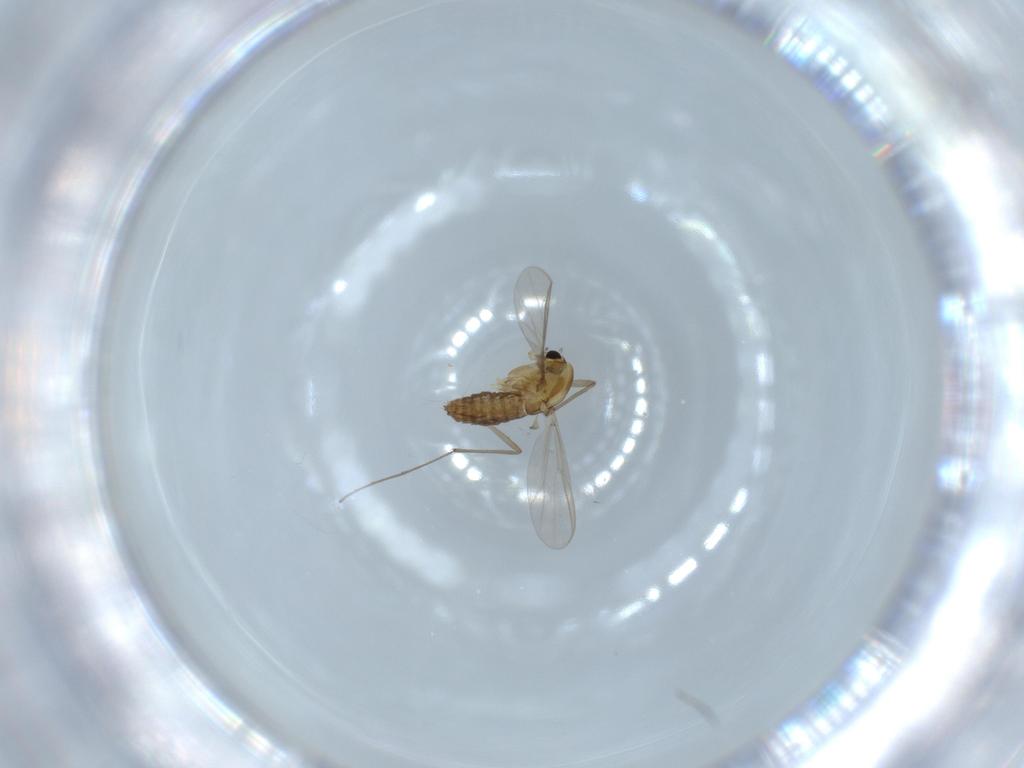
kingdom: Animalia
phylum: Arthropoda
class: Insecta
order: Diptera
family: Chironomidae
